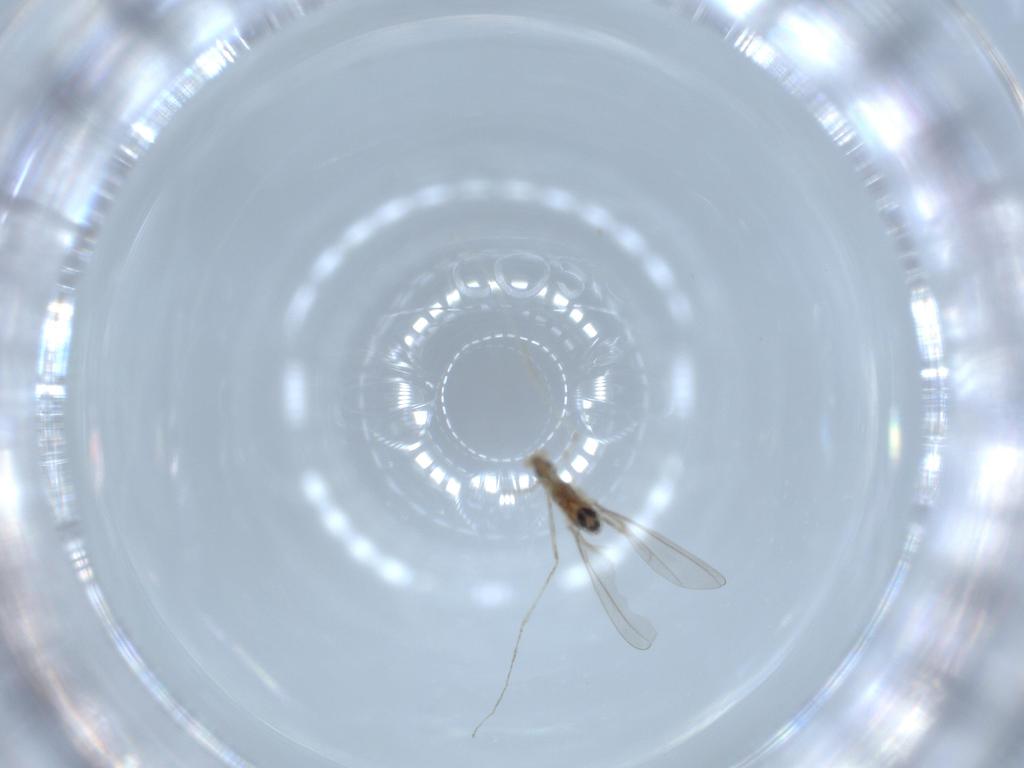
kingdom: Animalia
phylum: Arthropoda
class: Insecta
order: Diptera
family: Cecidomyiidae
